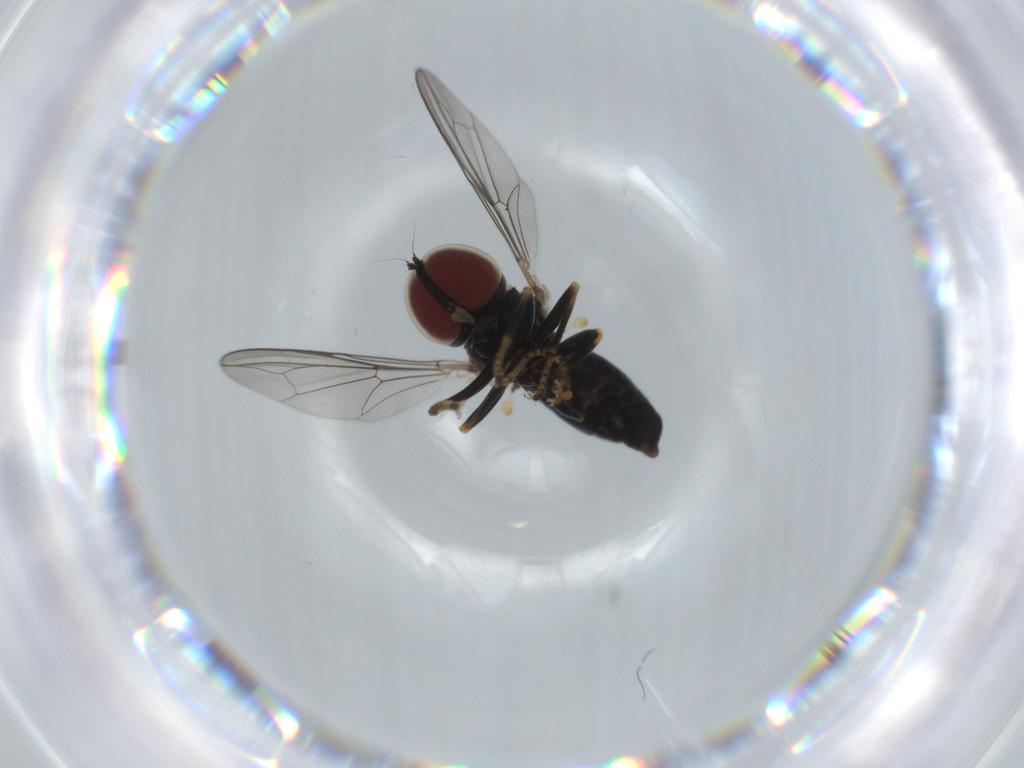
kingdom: Animalia
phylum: Arthropoda
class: Insecta
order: Diptera
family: Pipunculidae
